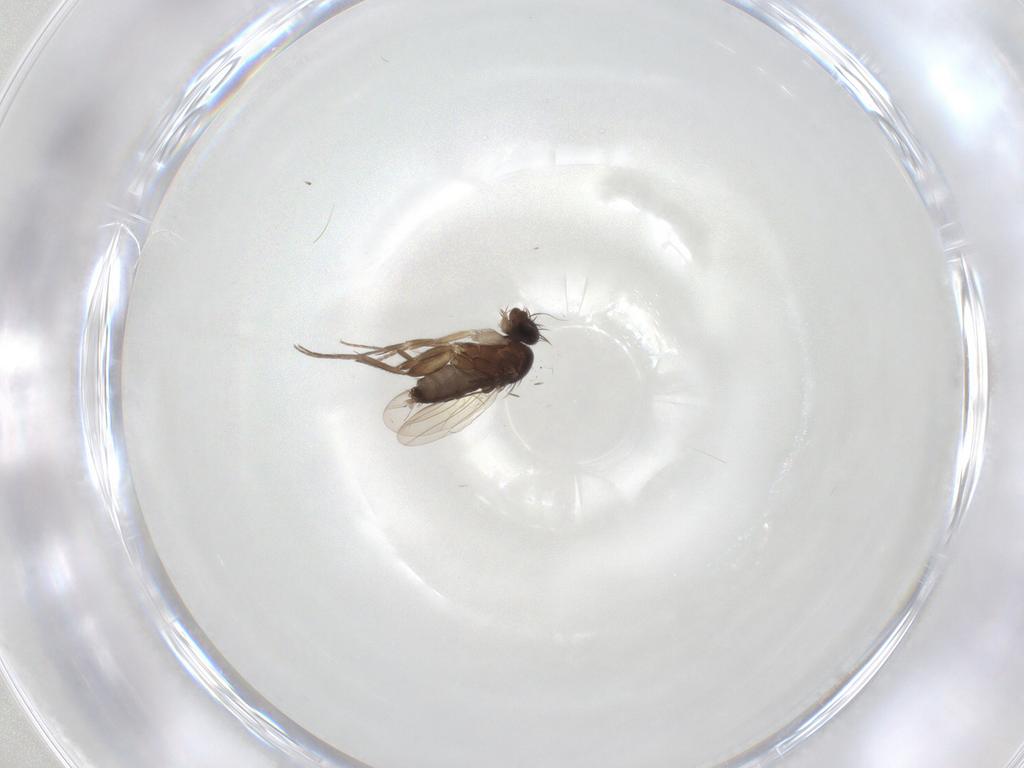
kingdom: Animalia
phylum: Arthropoda
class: Insecta
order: Diptera
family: Phoridae
